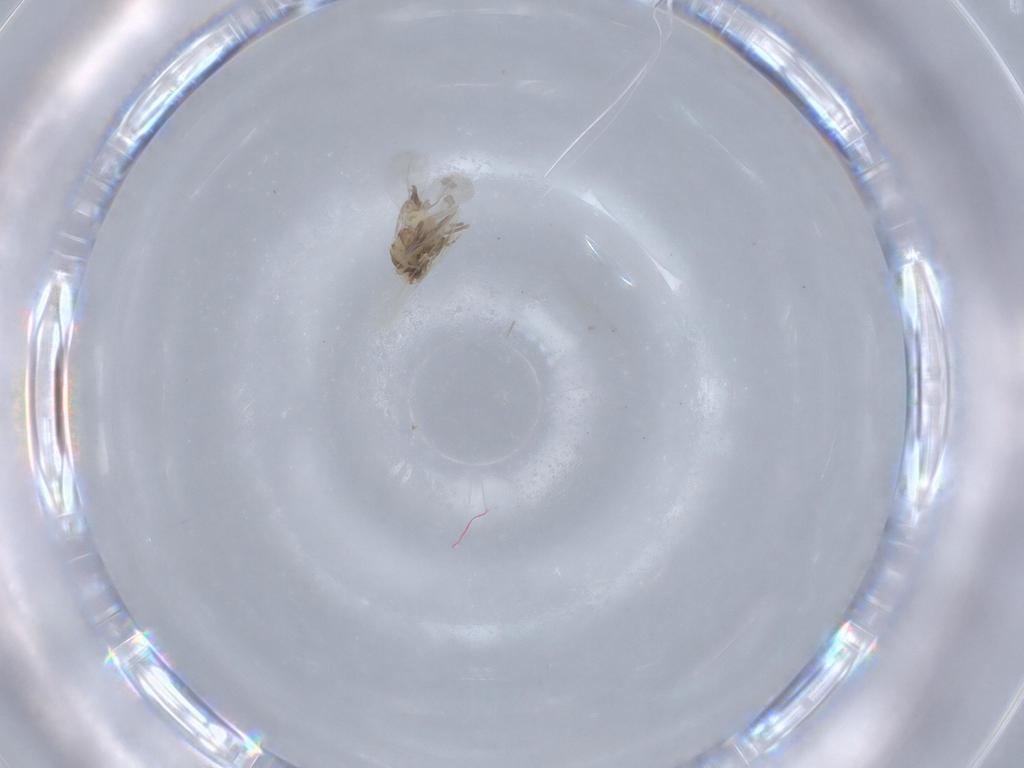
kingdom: Animalia
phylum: Arthropoda
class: Insecta
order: Hemiptera
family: Aleyrodidae
